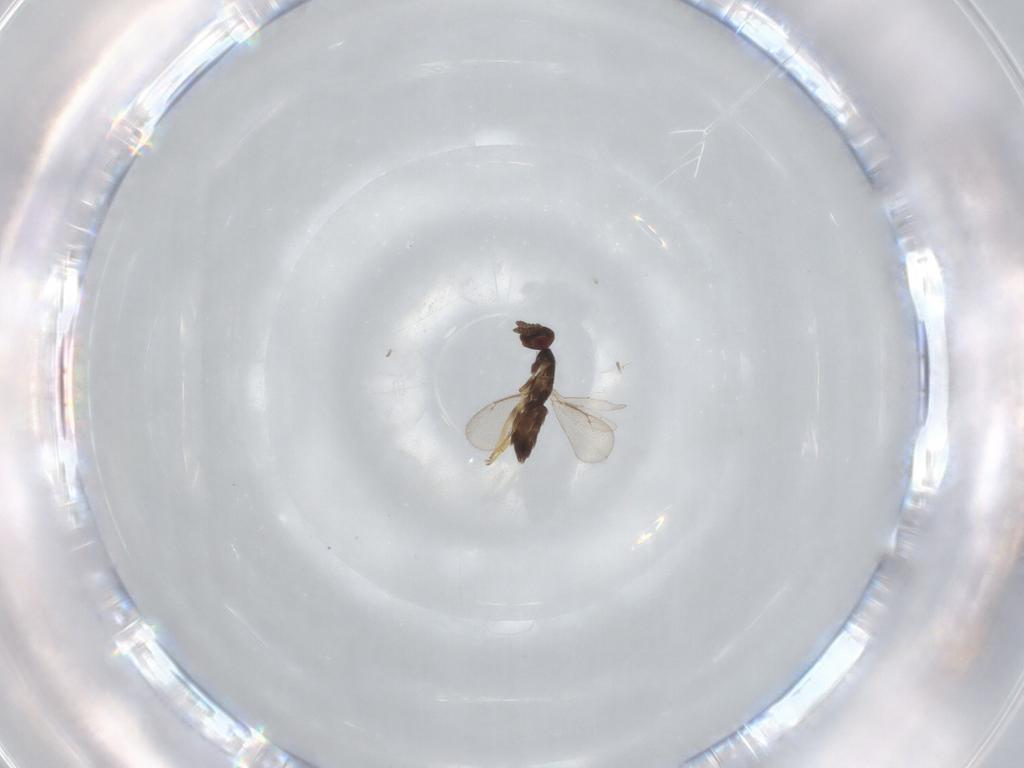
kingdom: Animalia
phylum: Arthropoda
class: Insecta
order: Hymenoptera
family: Eulophidae
